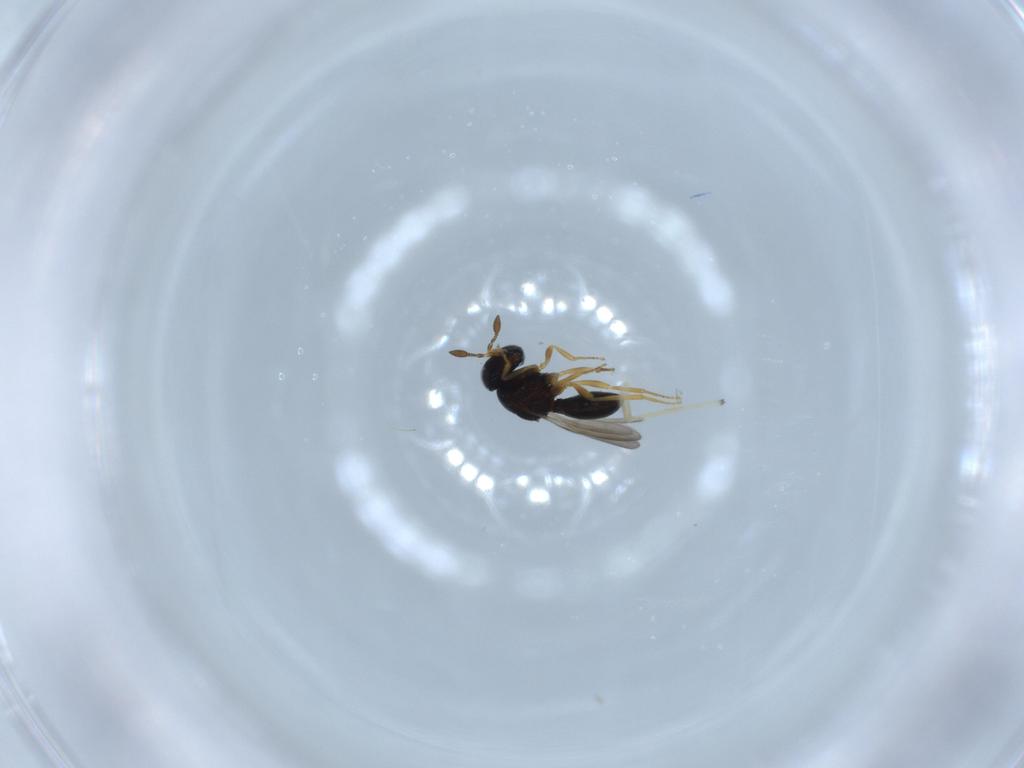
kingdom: Animalia
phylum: Arthropoda
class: Insecta
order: Hymenoptera
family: Scelionidae
